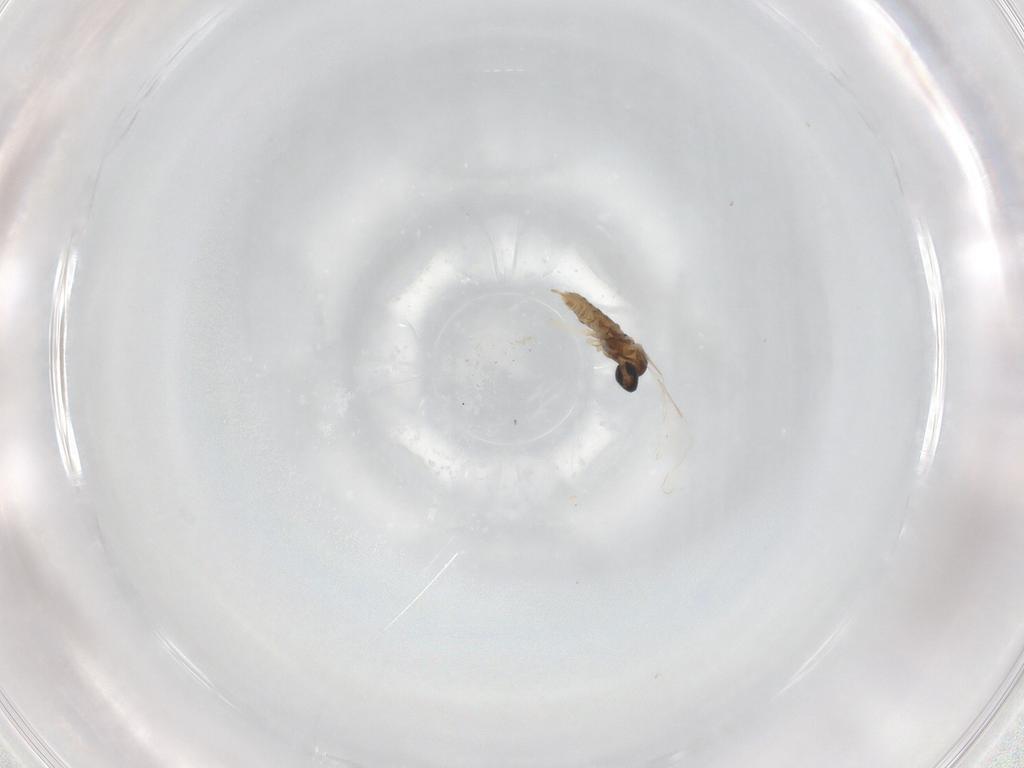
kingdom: Animalia
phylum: Arthropoda
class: Insecta
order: Diptera
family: Cecidomyiidae
